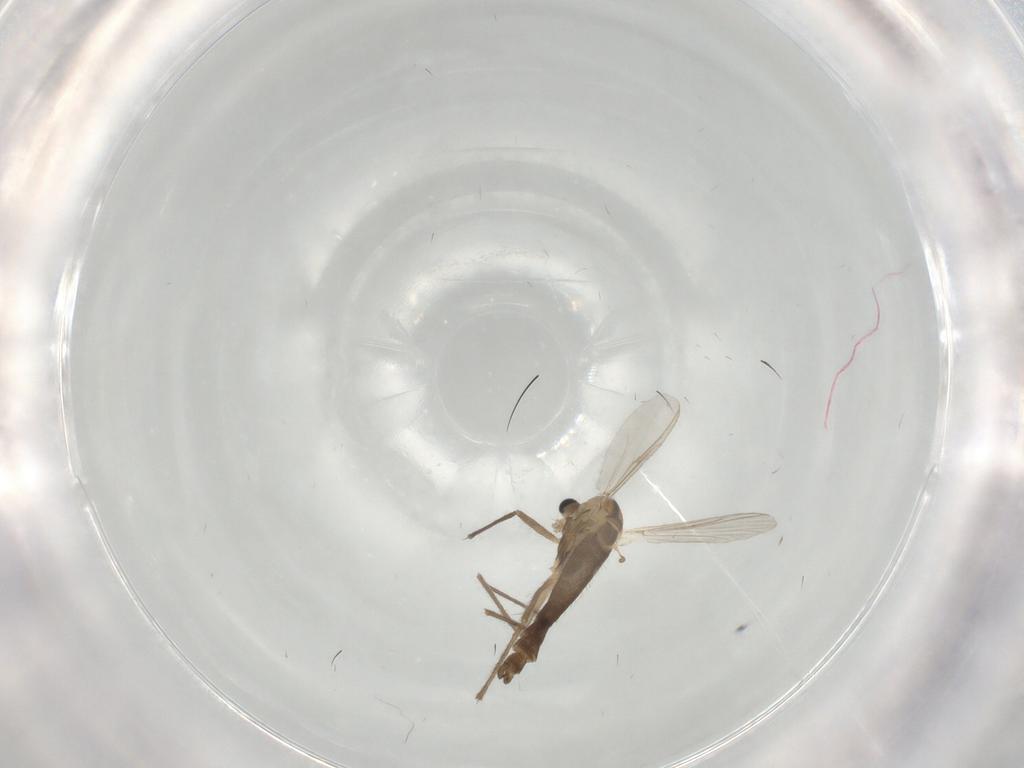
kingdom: Animalia
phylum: Arthropoda
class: Insecta
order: Diptera
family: Chironomidae
